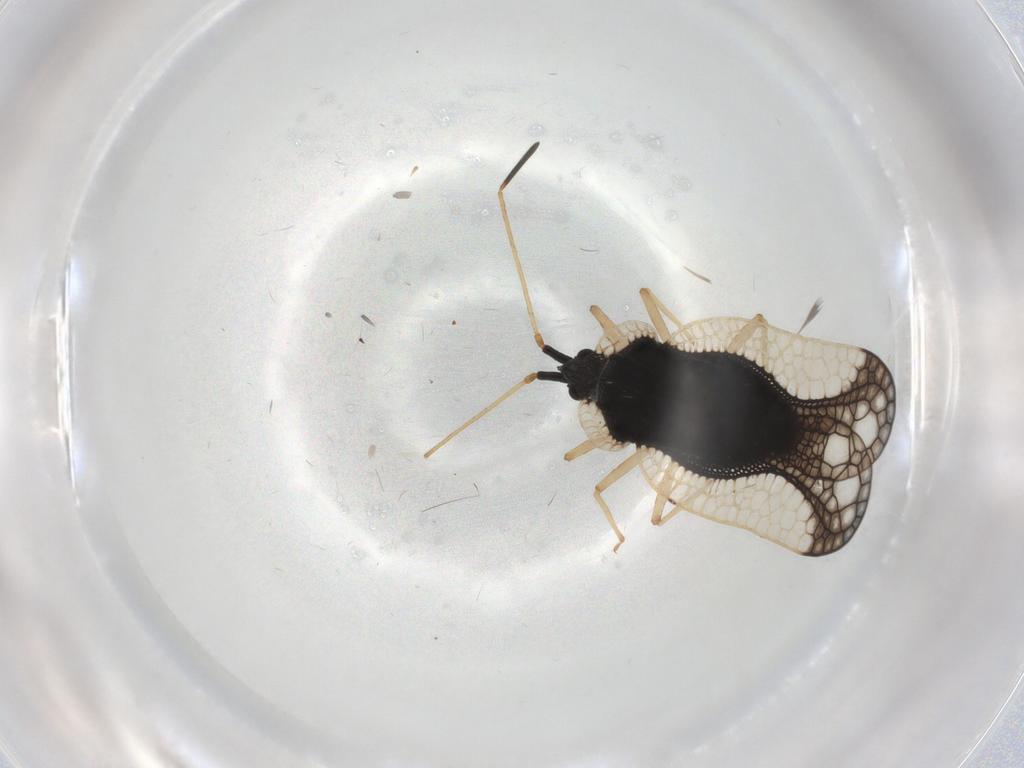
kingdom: Animalia
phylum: Arthropoda
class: Insecta
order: Hemiptera
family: Tingidae
